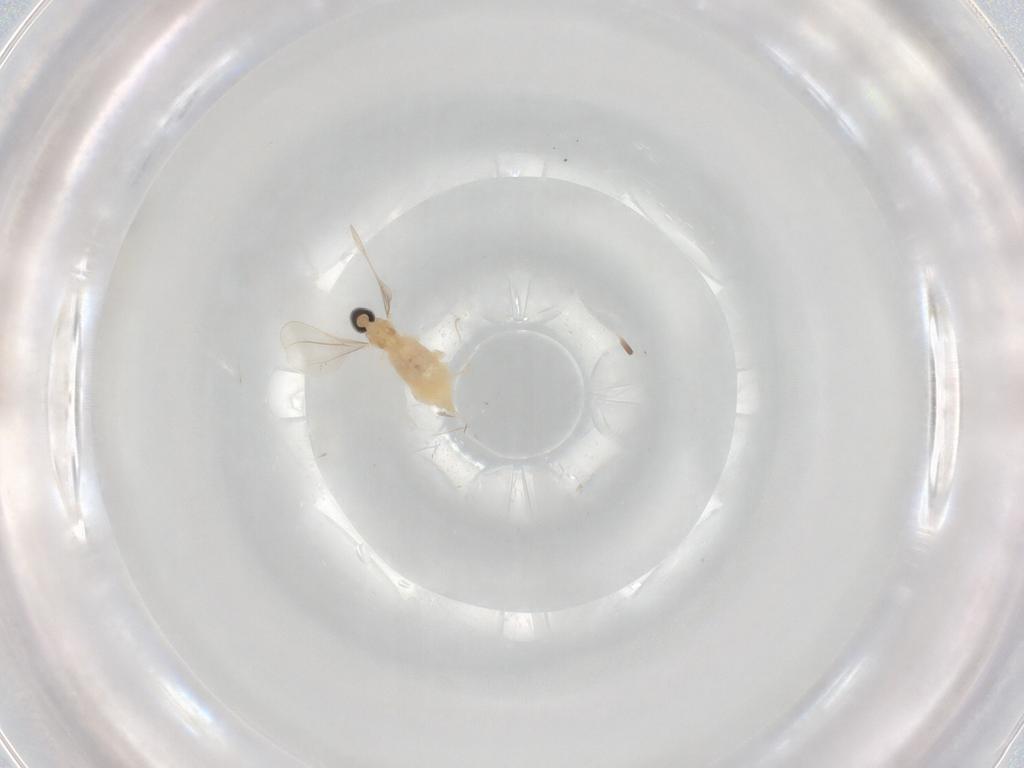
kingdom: Animalia
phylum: Arthropoda
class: Insecta
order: Diptera
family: Cecidomyiidae
